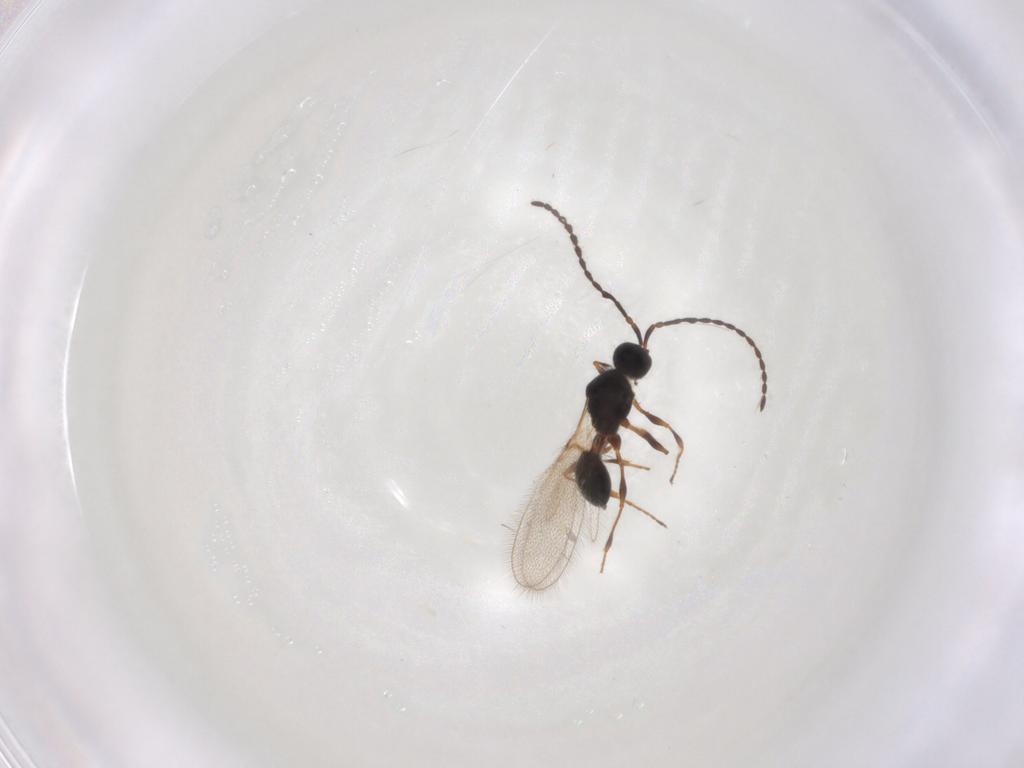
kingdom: Animalia
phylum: Arthropoda
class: Insecta
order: Hymenoptera
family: Diapriidae
